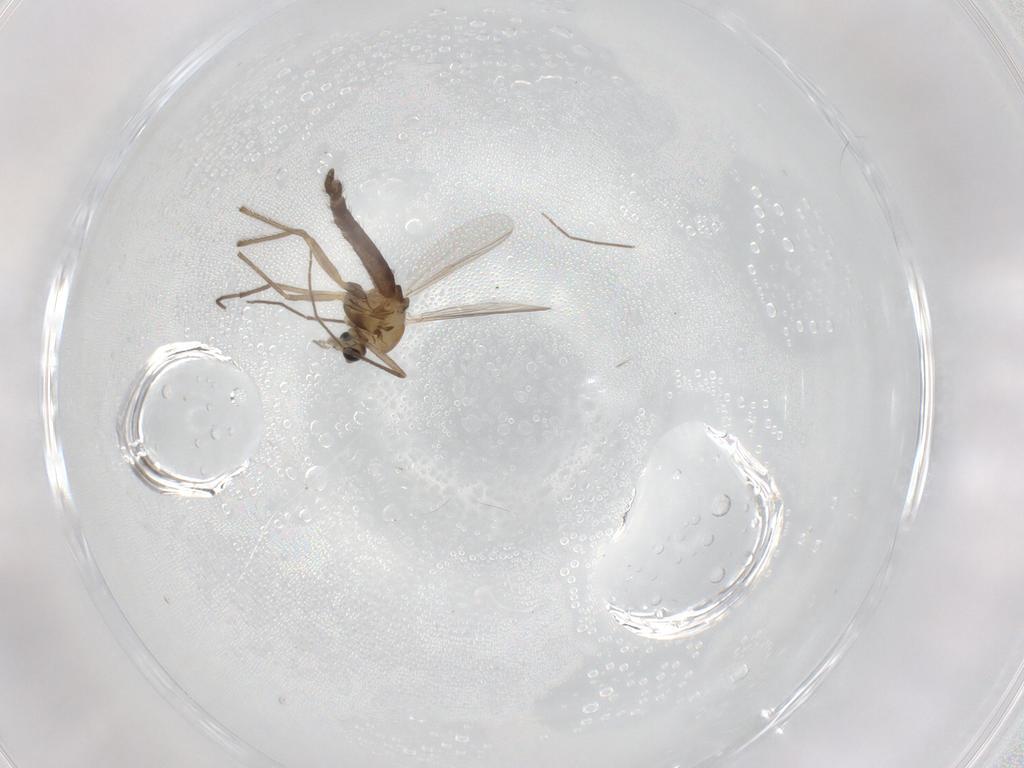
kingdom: Animalia
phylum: Arthropoda
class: Insecta
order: Diptera
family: Chironomidae
